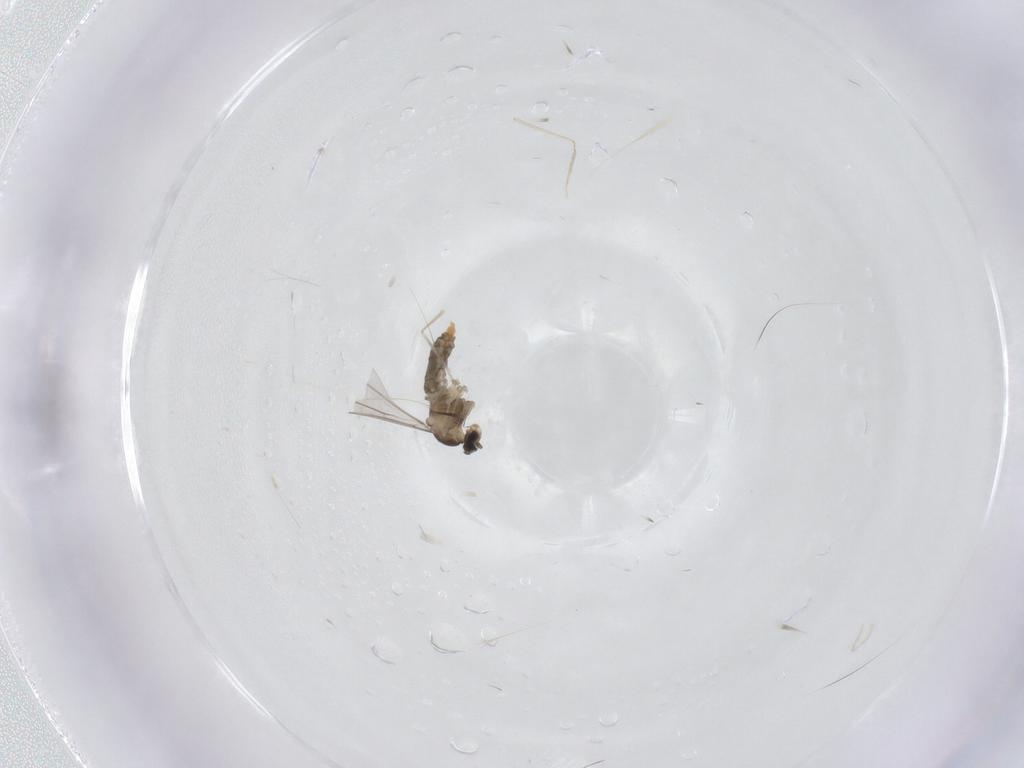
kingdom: Animalia
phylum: Arthropoda
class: Insecta
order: Diptera
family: Cecidomyiidae
